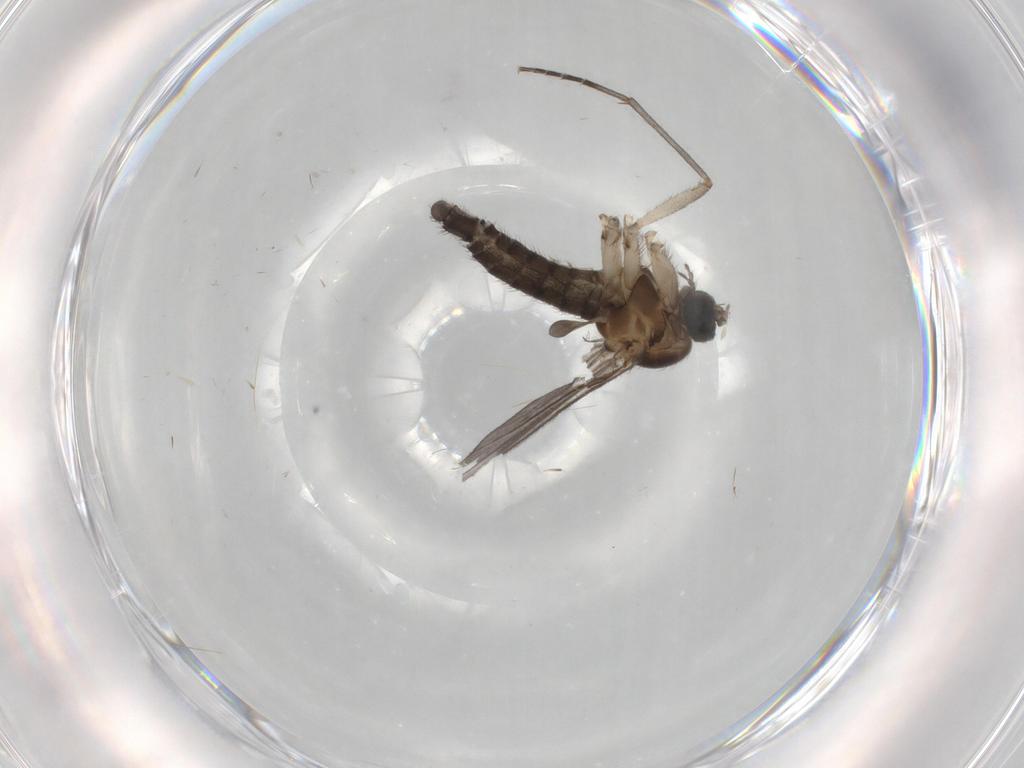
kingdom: Animalia
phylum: Arthropoda
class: Insecta
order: Diptera
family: Sciaridae
